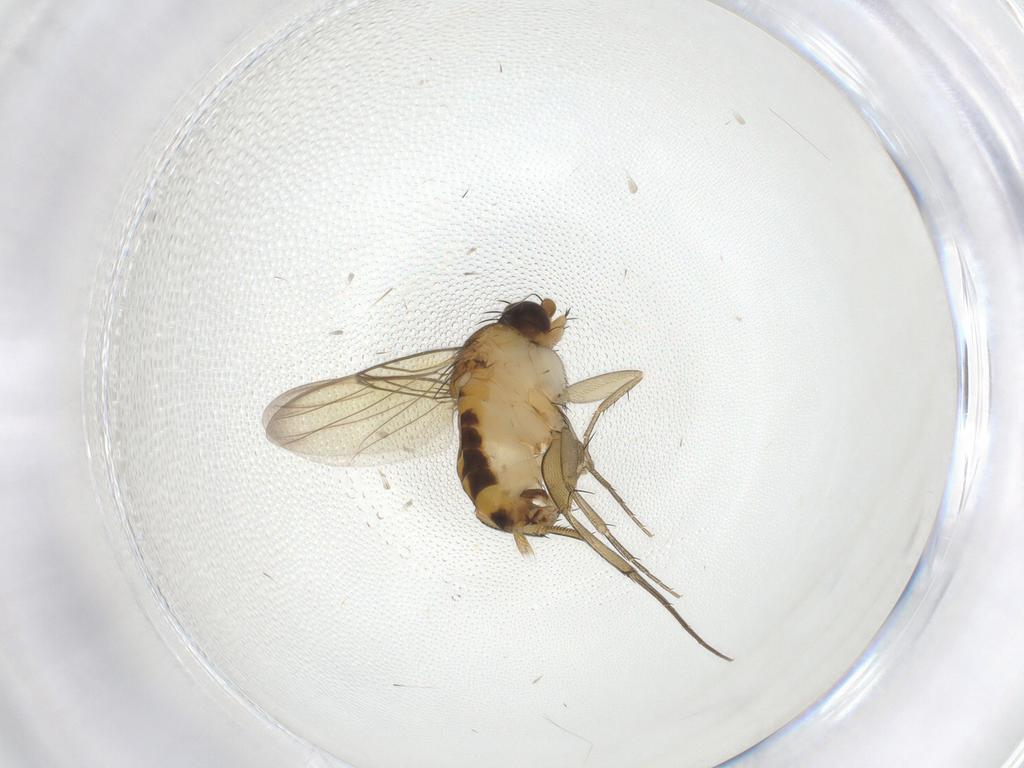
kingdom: Animalia
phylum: Arthropoda
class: Insecta
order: Diptera
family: Phoridae
